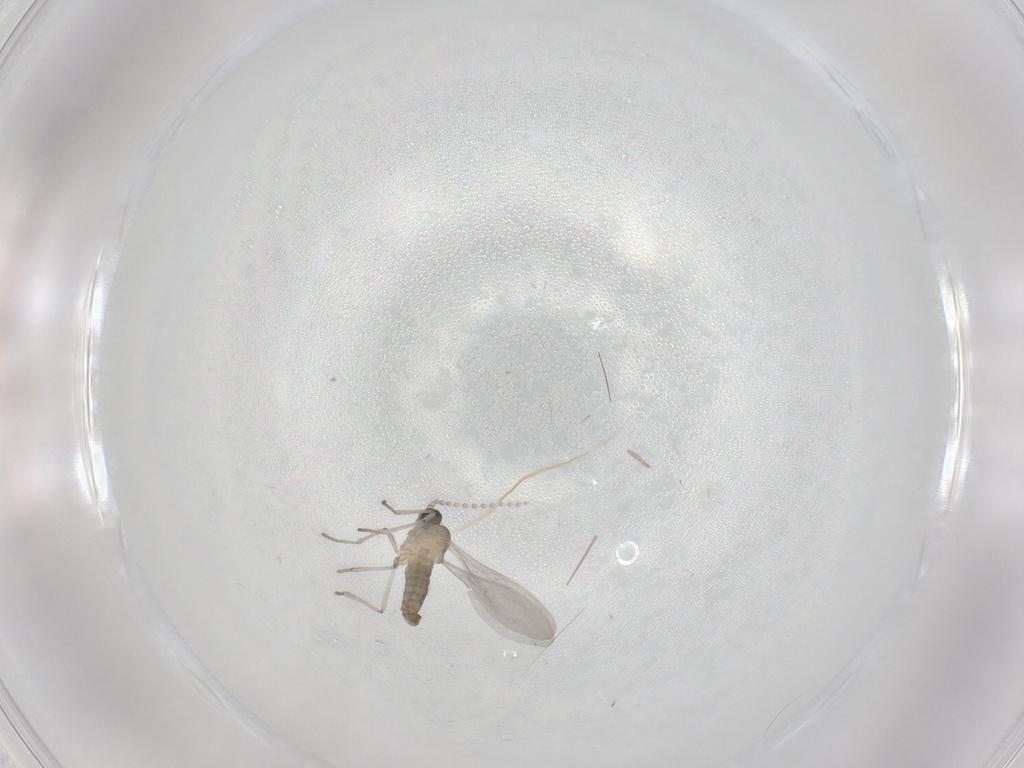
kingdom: Animalia
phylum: Arthropoda
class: Insecta
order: Diptera
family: Cecidomyiidae
